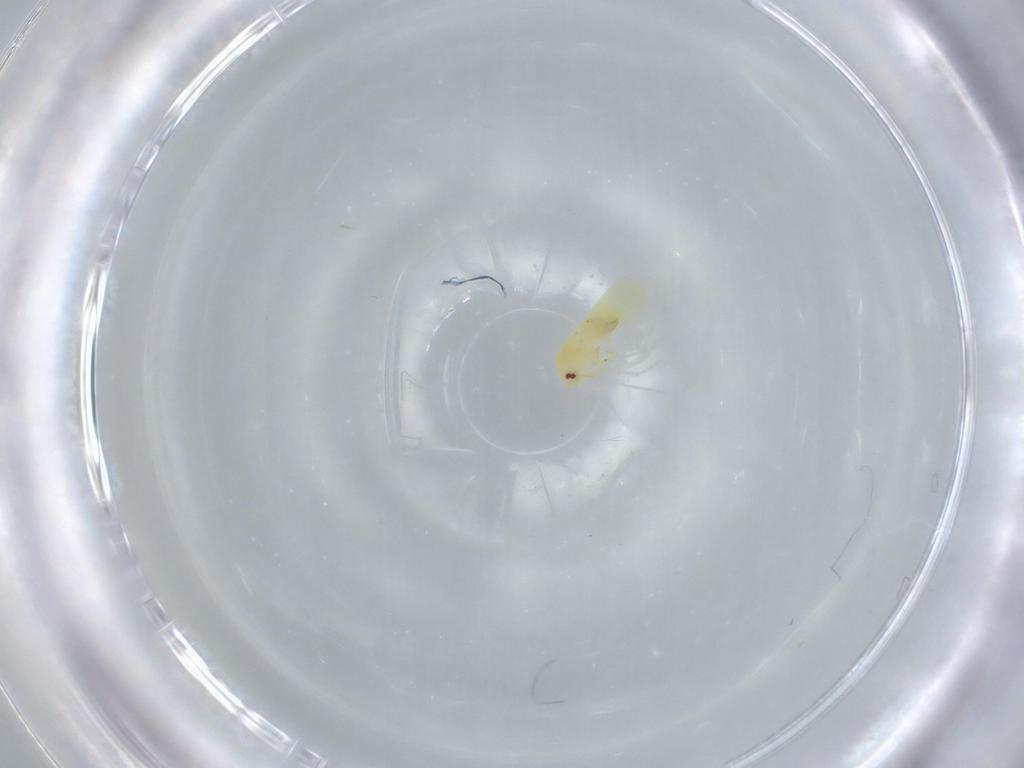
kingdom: Animalia
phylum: Arthropoda
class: Insecta
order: Hemiptera
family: Aleyrodidae
